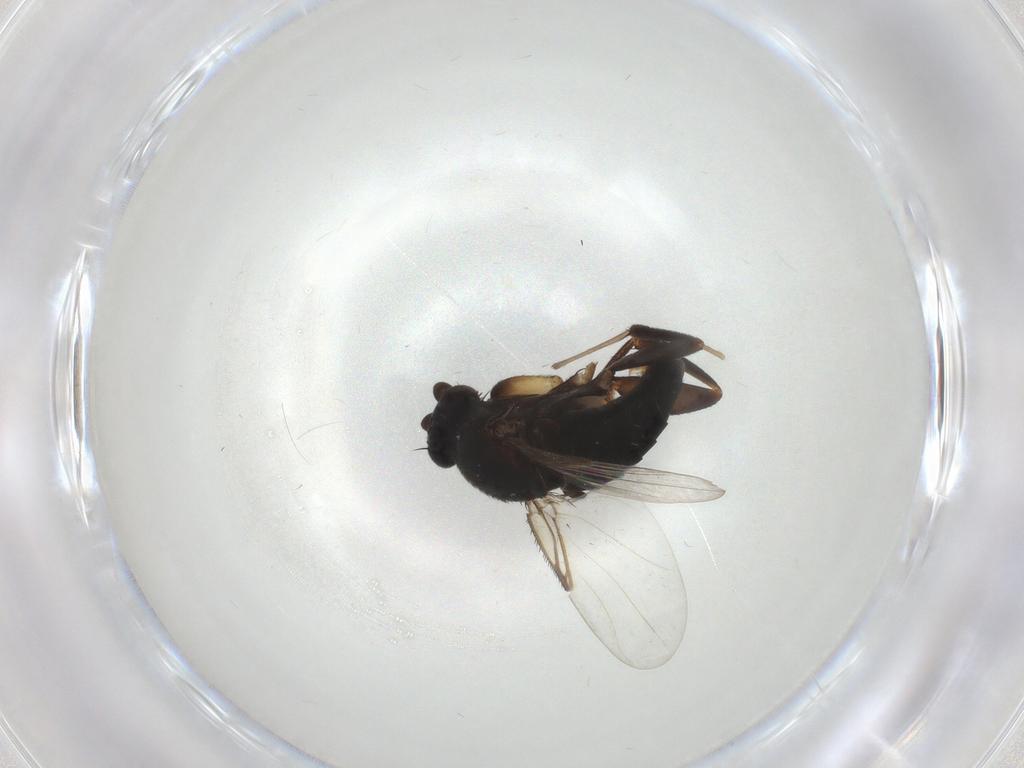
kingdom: Animalia
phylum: Arthropoda
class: Insecta
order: Diptera
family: Phoridae
